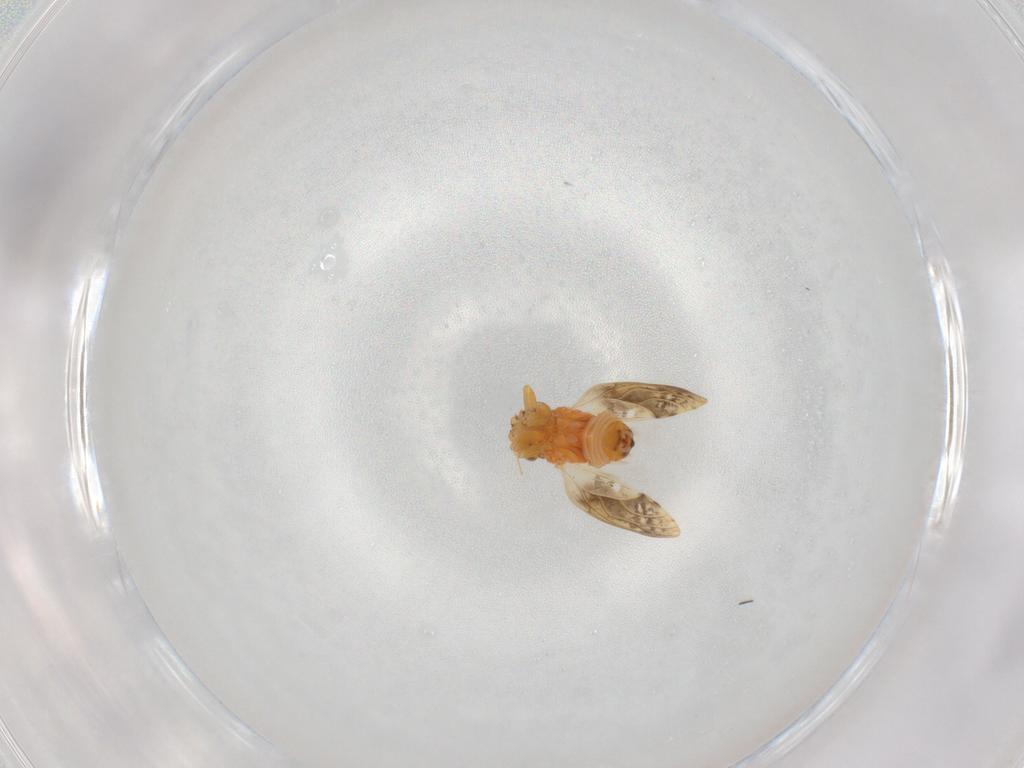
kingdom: Animalia
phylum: Arthropoda
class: Insecta
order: Hemiptera
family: Psyllidae
